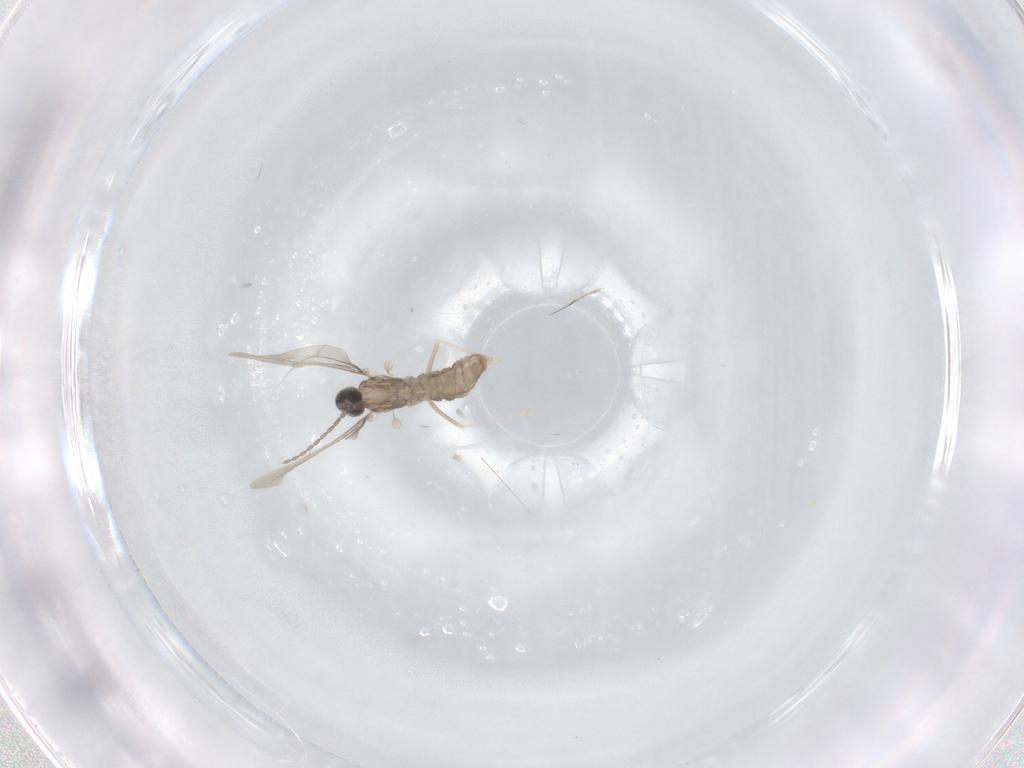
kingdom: Animalia
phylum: Arthropoda
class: Insecta
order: Diptera
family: Cecidomyiidae
